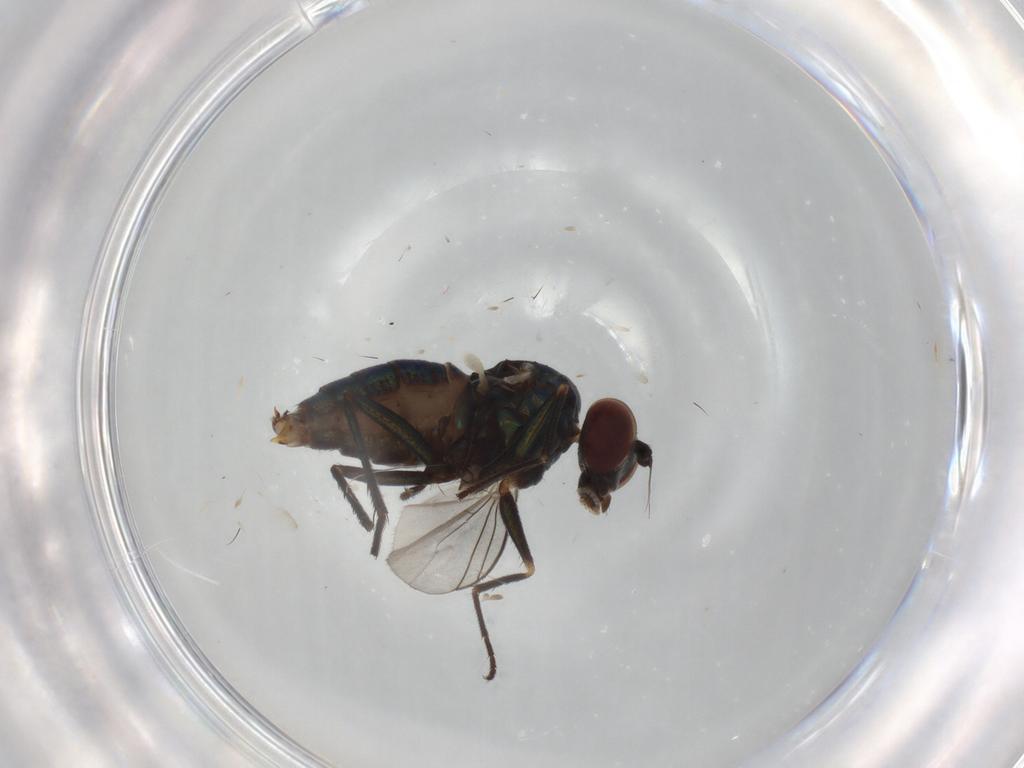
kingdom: Animalia
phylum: Arthropoda
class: Insecta
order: Diptera
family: Dolichopodidae
